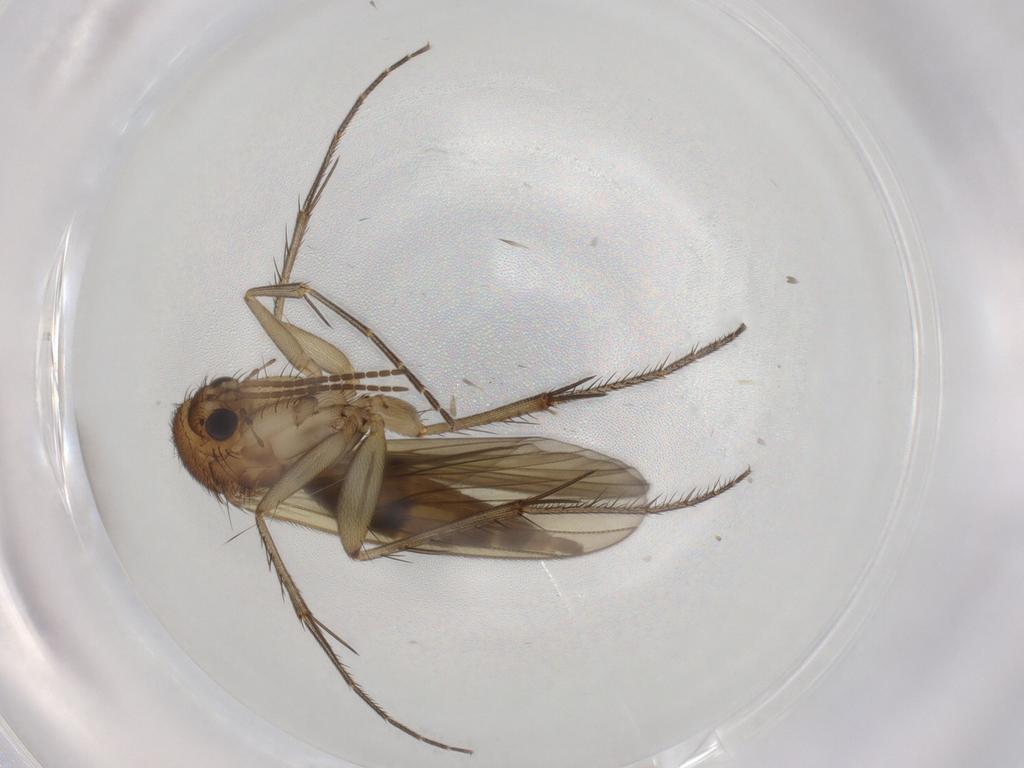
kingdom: Animalia
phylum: Arthropoda
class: Insecta
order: Diptera
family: Mycetophilidae
